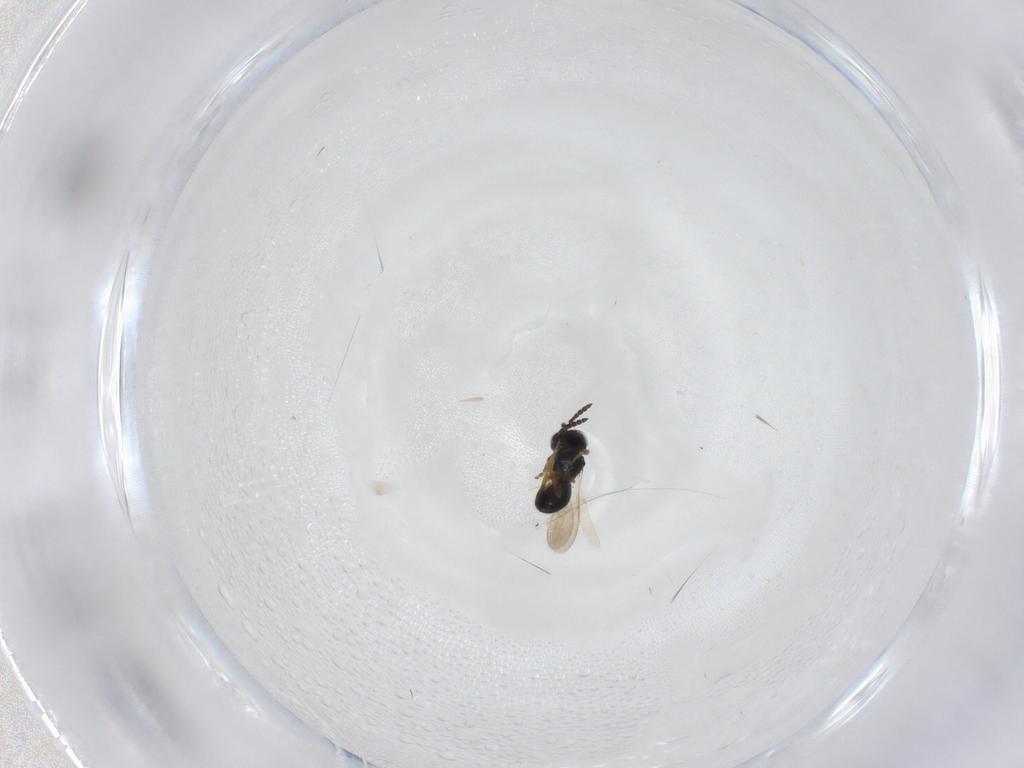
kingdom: Animalia
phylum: Arthropoda
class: Insecta
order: Hymenoptera
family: Scelionidae
